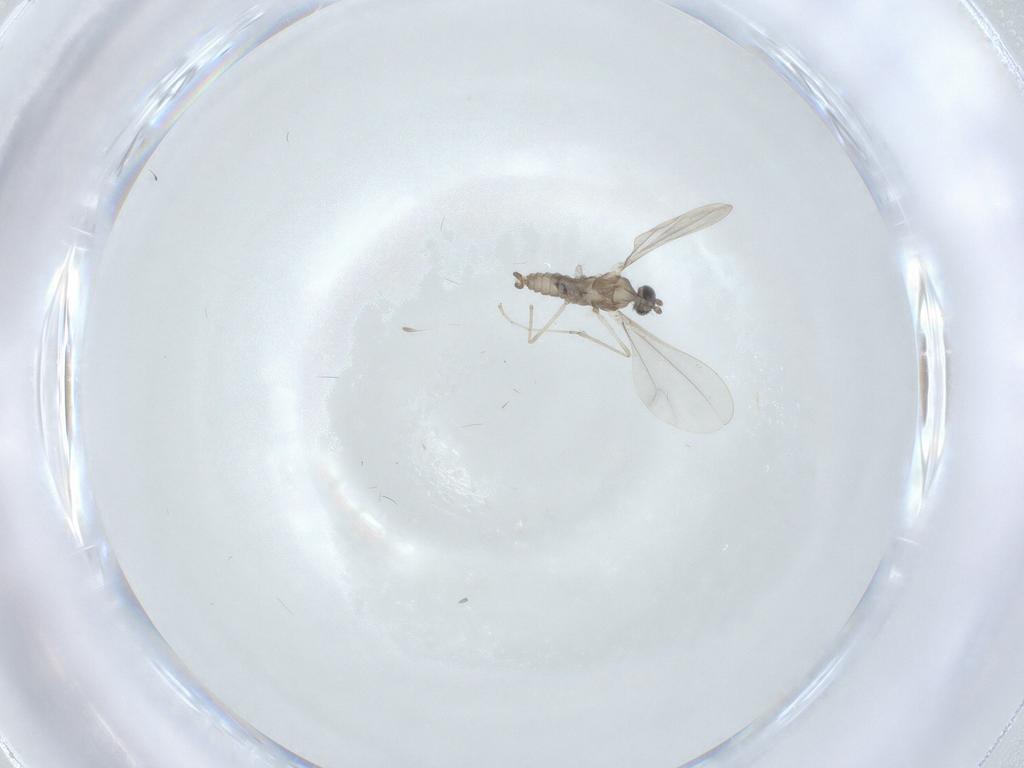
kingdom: Animalia
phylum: Arthropoda
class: Insecta
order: Diptera
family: Cecidomyiidae
